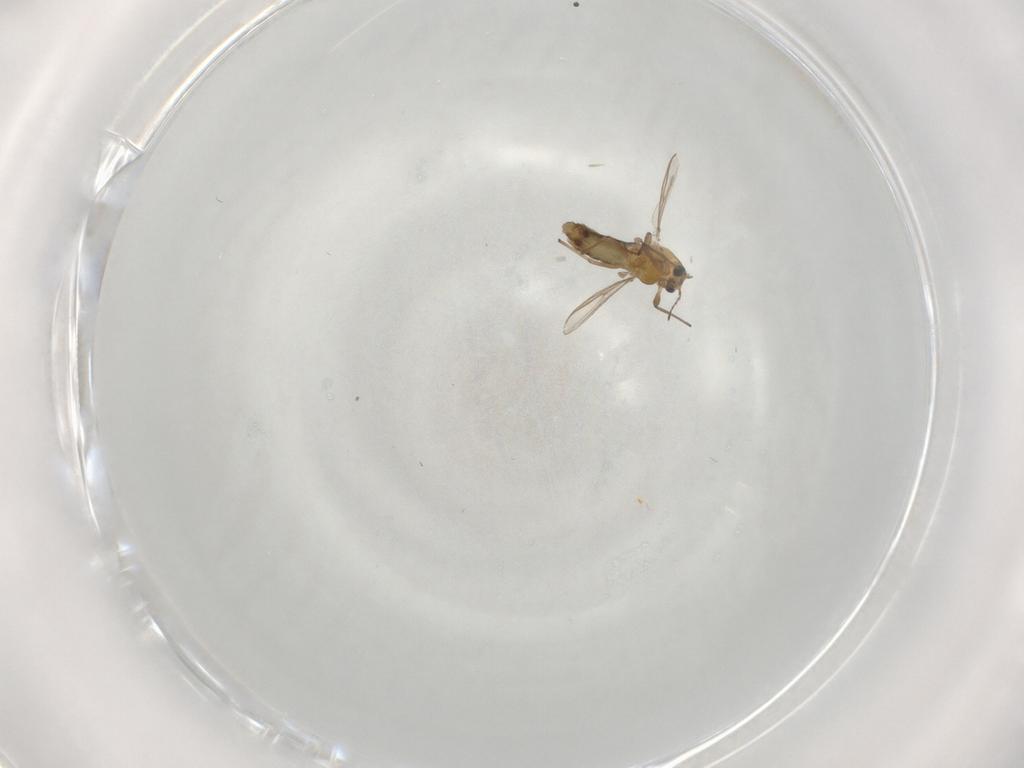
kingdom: Animalia
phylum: Arthropoda
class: Insecta
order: Diptera
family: Chironomidae
